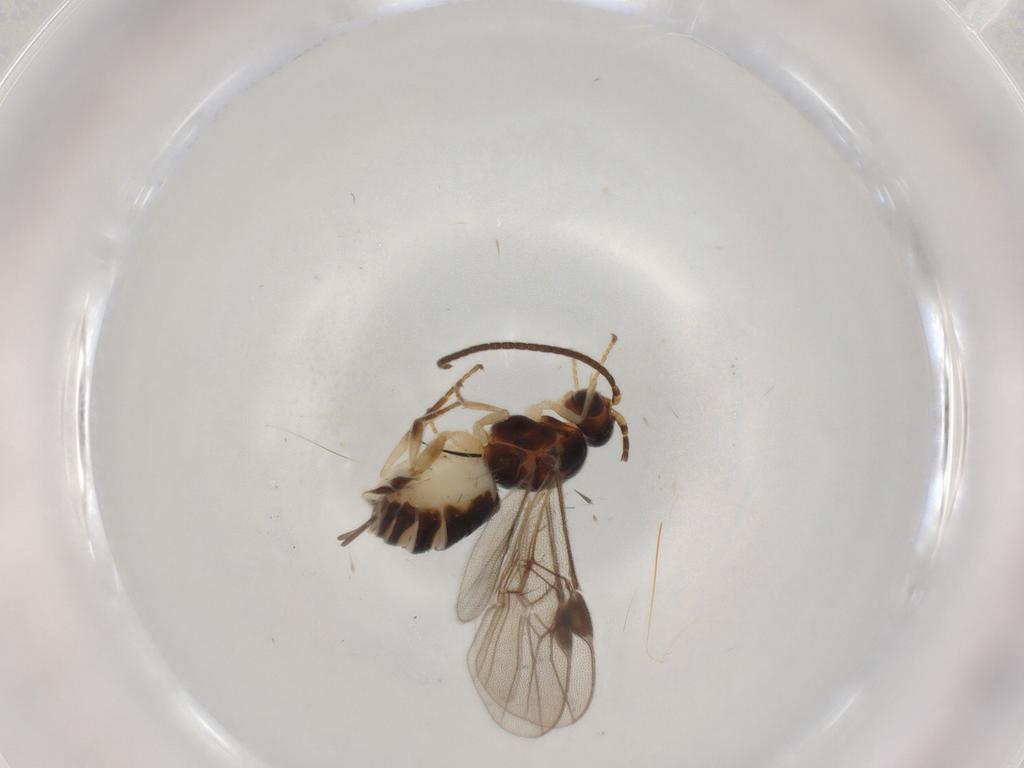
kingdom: Animalia
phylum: Arthropoda
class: Insecta
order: Hymenoptera
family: Braconidae
